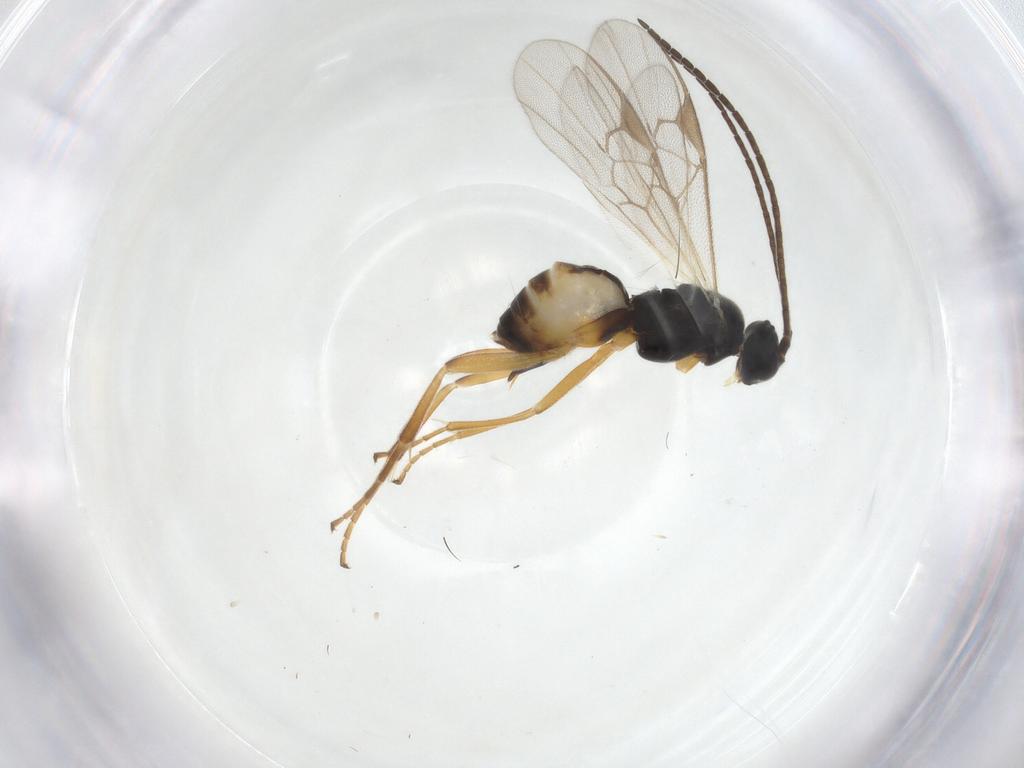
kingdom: Animalia
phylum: Arthropoda
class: Insecta
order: Hymenoptera
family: Braconidae
